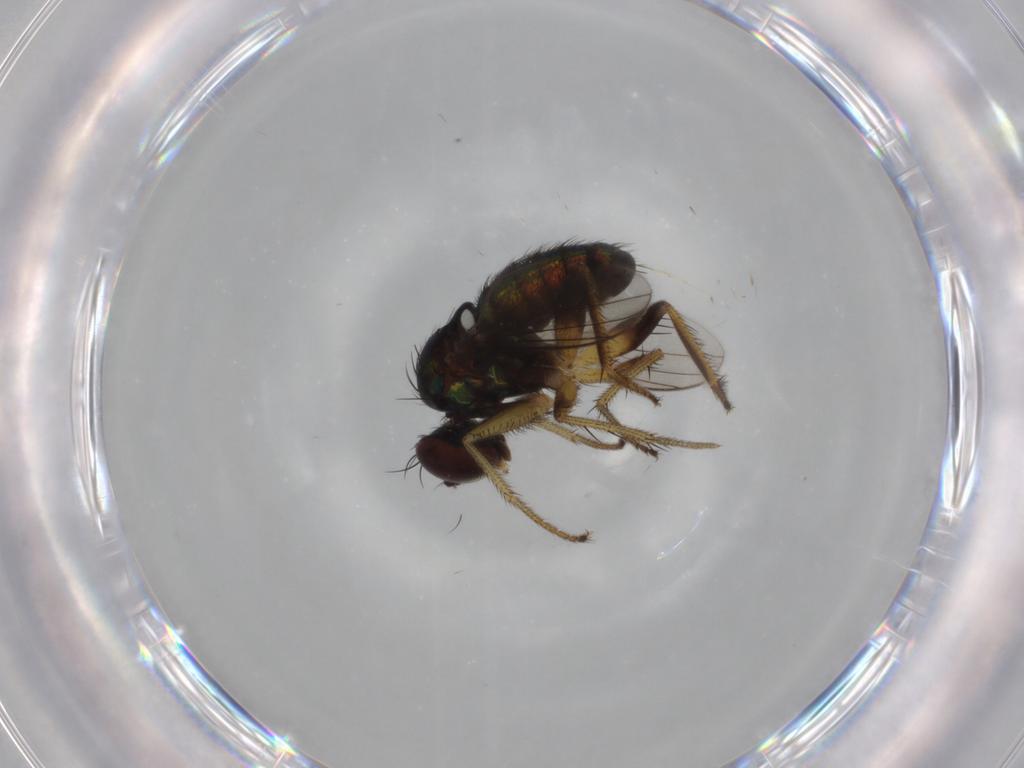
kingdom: Animalia
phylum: Arthropoda
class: Insecta
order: Diptera
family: Dolichopodidae
